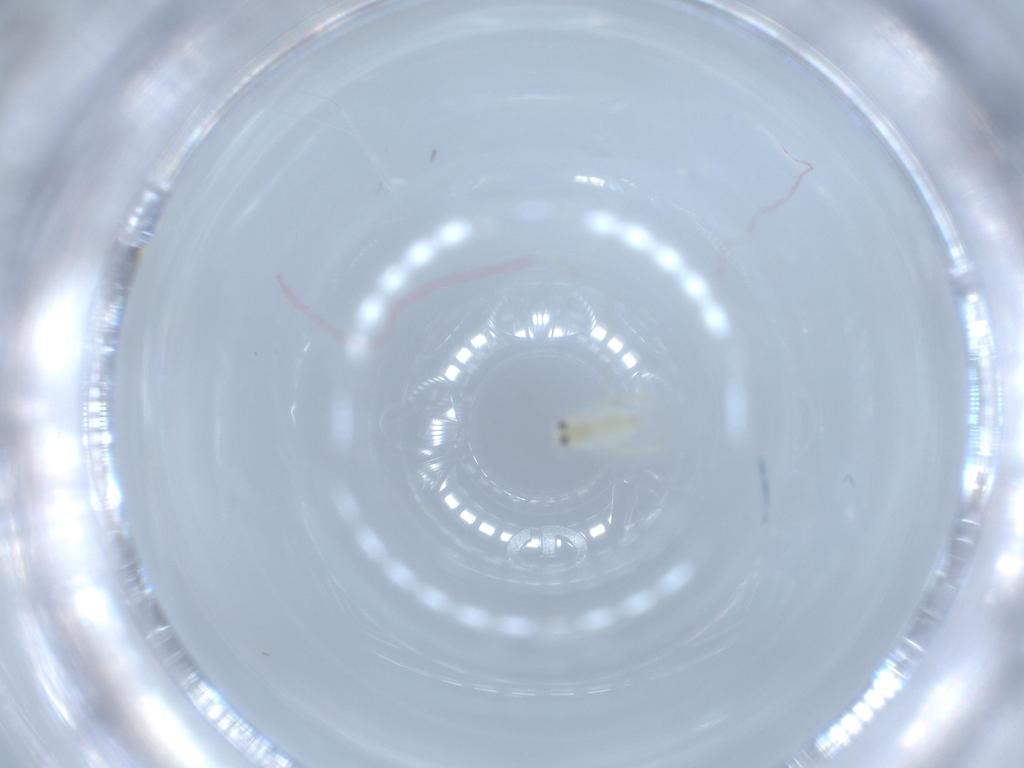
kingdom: Animalia
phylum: Arthropoda
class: Insecta
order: Hemiptera
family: Aleyrodidae
